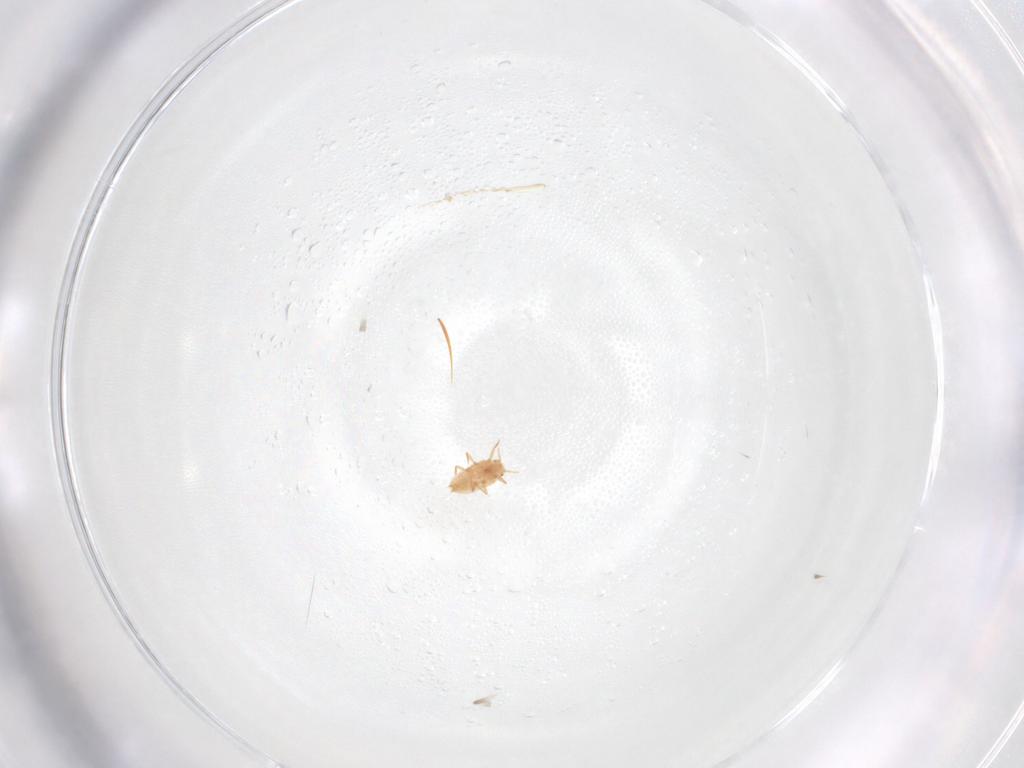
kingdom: Animalia
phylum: Arthropoda
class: Insecta
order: Hemiptera
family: Coccoidea_incertae_sedis
